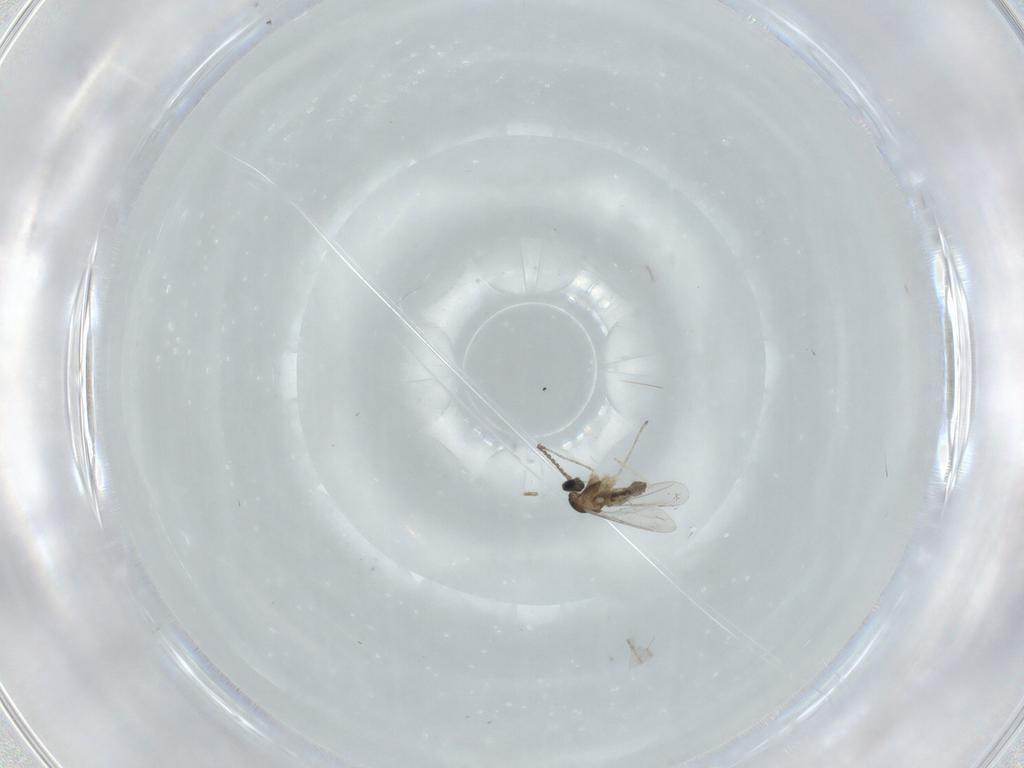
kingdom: Animalia
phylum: Arthropoda
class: Insecta
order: Diptera
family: Cecidomyiidae
